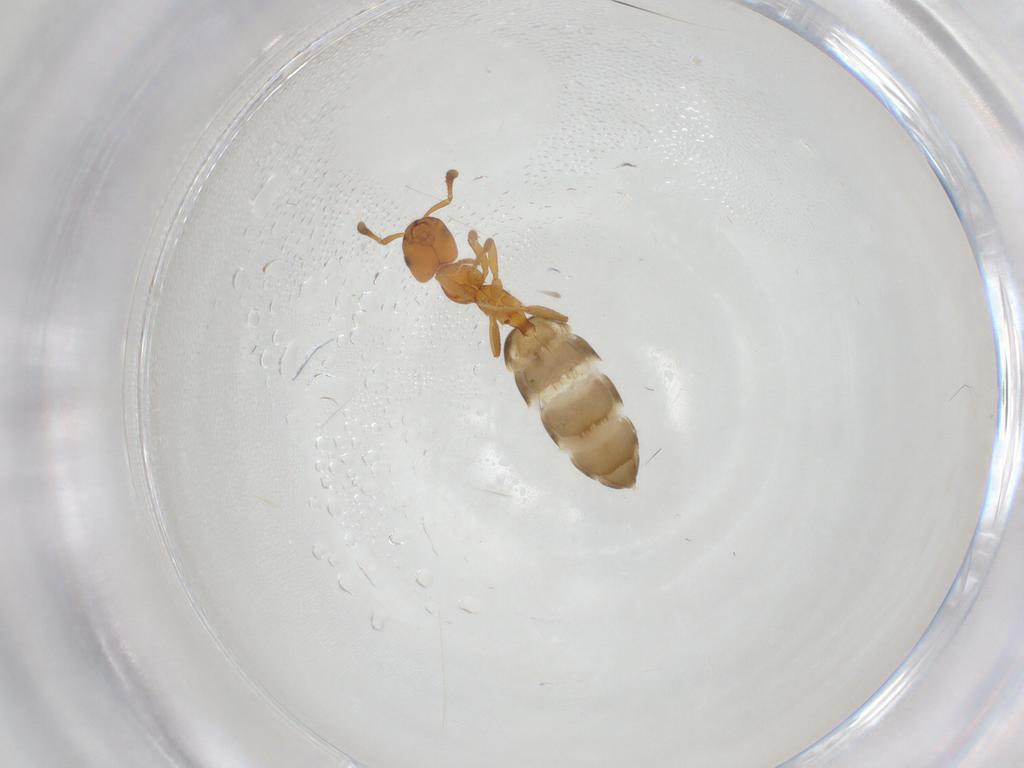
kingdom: Animalia
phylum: Arthropoda
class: Insecta
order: Hymenoptera
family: Formicidae
